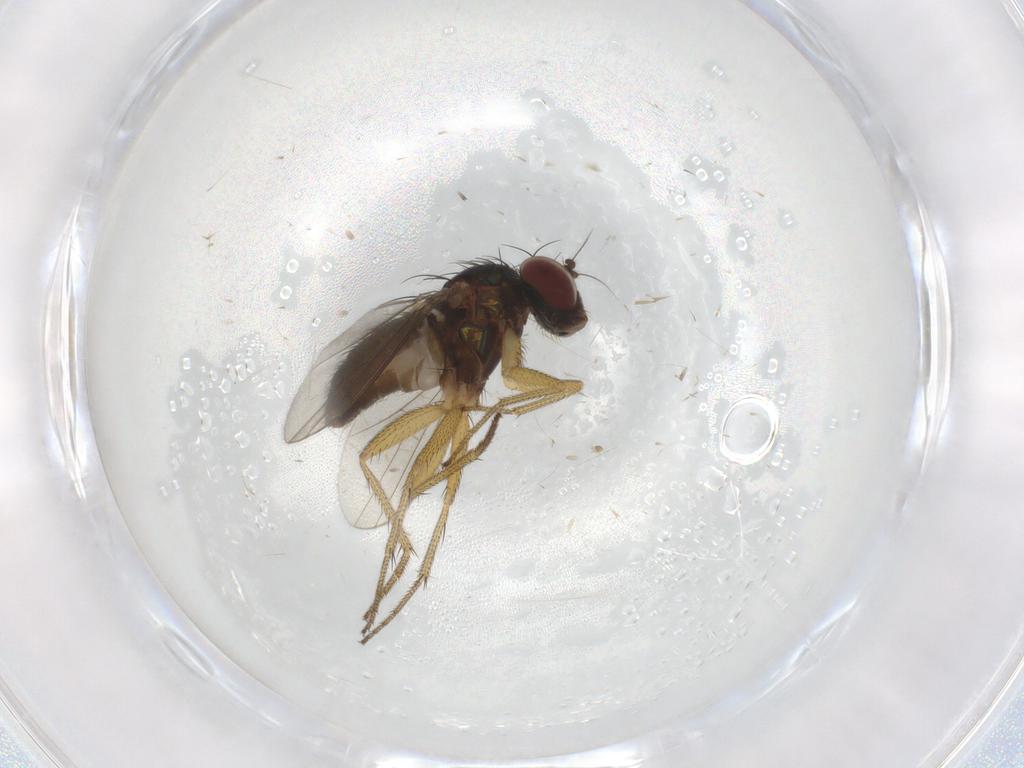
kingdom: Animalia
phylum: Arthropoda
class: Insecta
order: Diptera
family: Dolichopodidae
